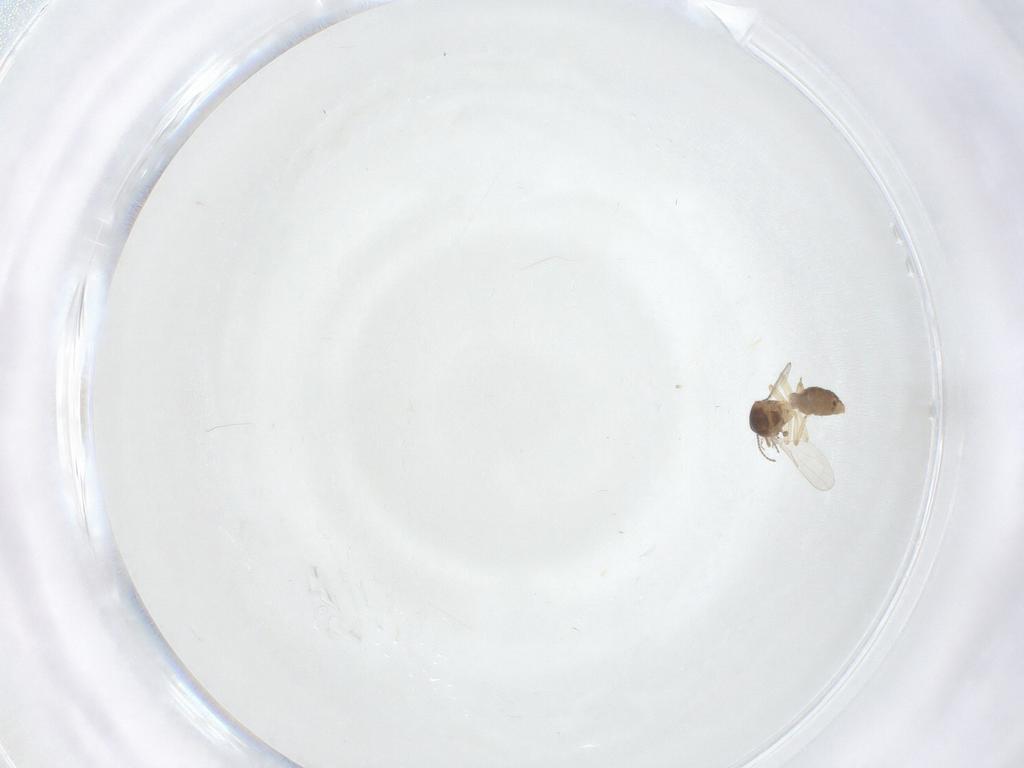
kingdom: Animalia
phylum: Arthropoda
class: Insecta
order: Diptera
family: Ceratopogonidae
